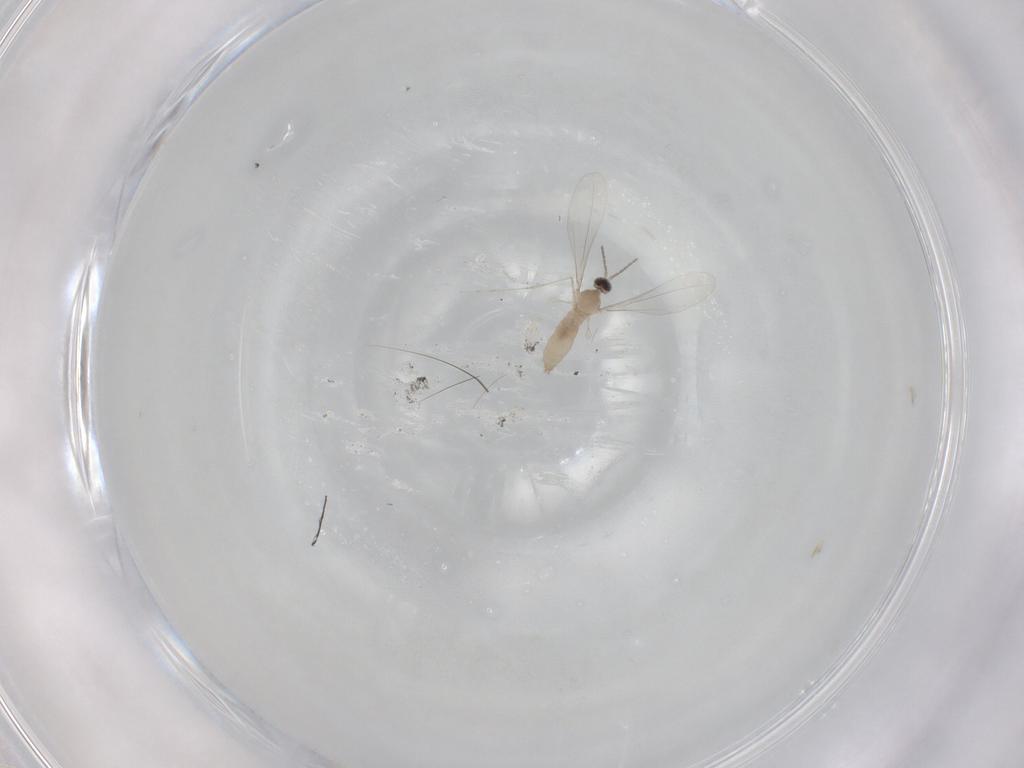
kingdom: Animalia
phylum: Arthropoda
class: Insecta
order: Diptera
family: Cecidomyiidae
